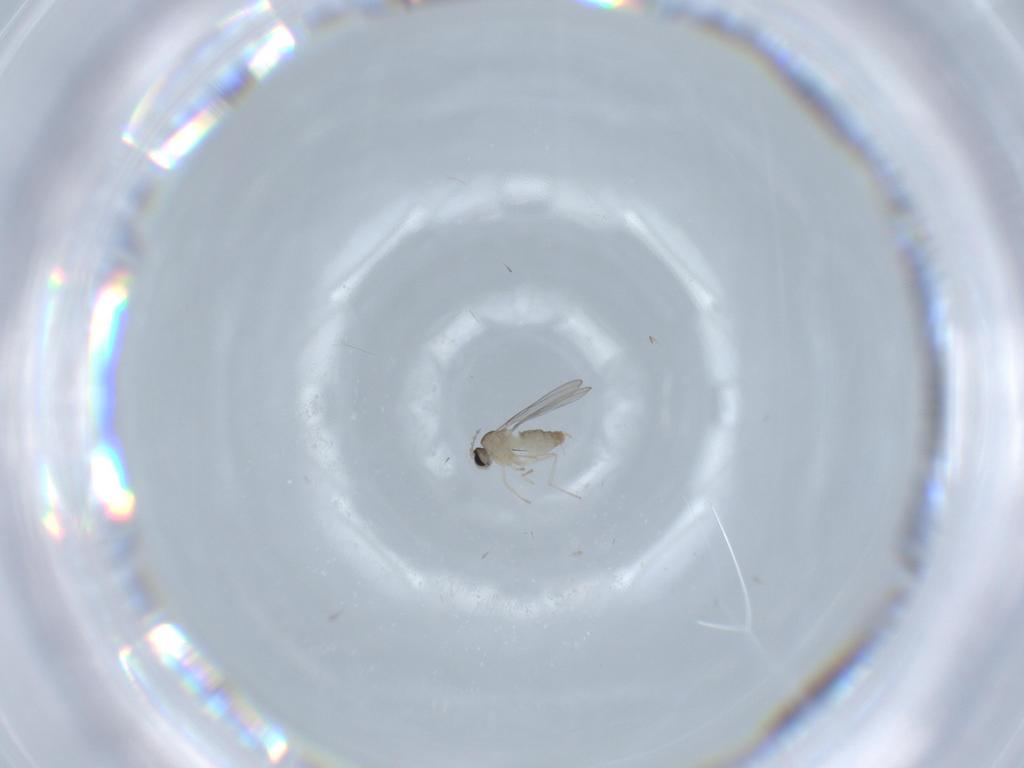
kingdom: Animalia
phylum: Arthropoda
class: Insecta
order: Diptera
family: Cecidomyiidae
